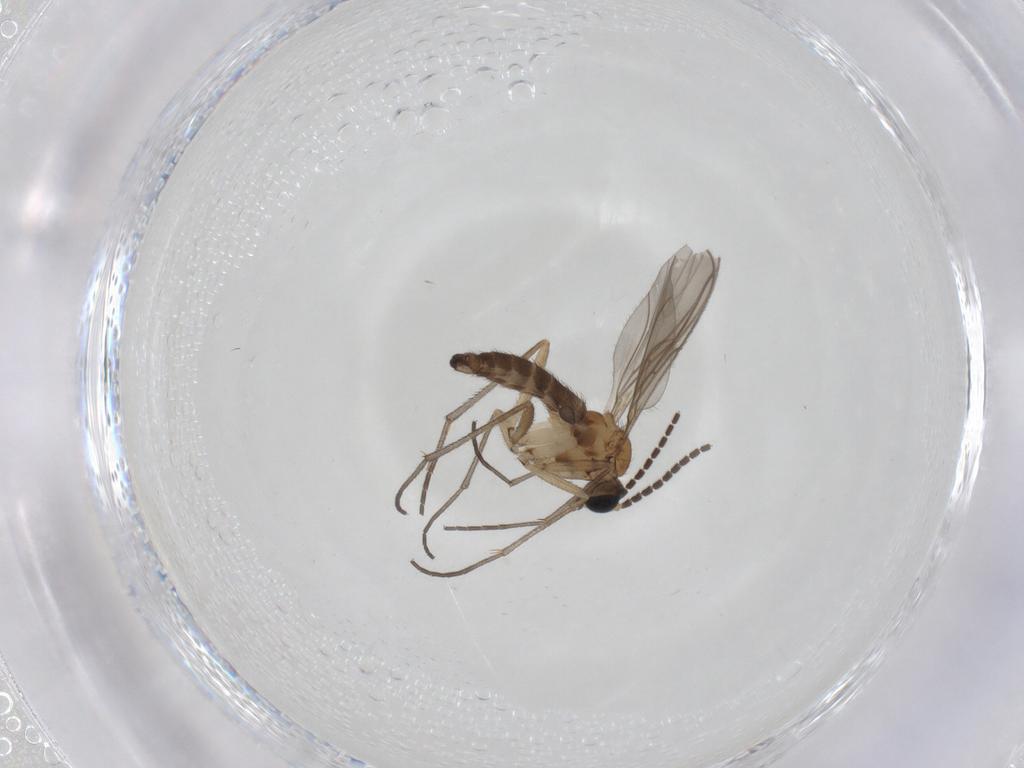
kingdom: Animalia
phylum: Arthropoda
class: Insecta
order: Diptera
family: Sciaridae
